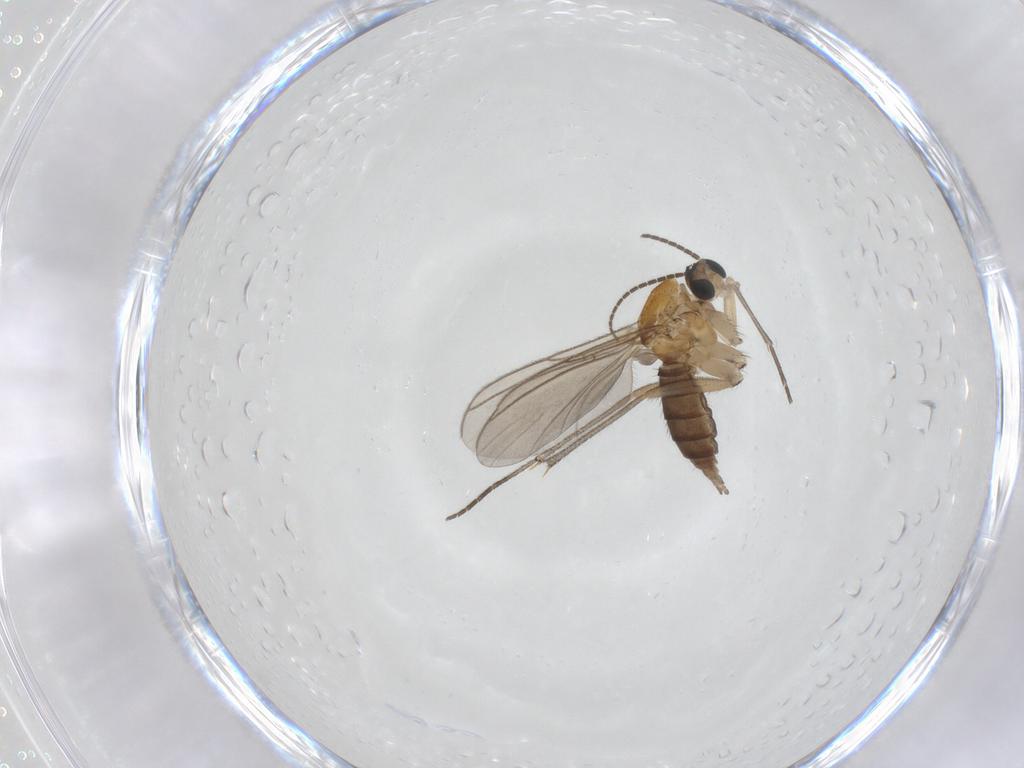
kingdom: Animalia
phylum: Arthropoda
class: Insecta
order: Diptera
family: Sciaridae
